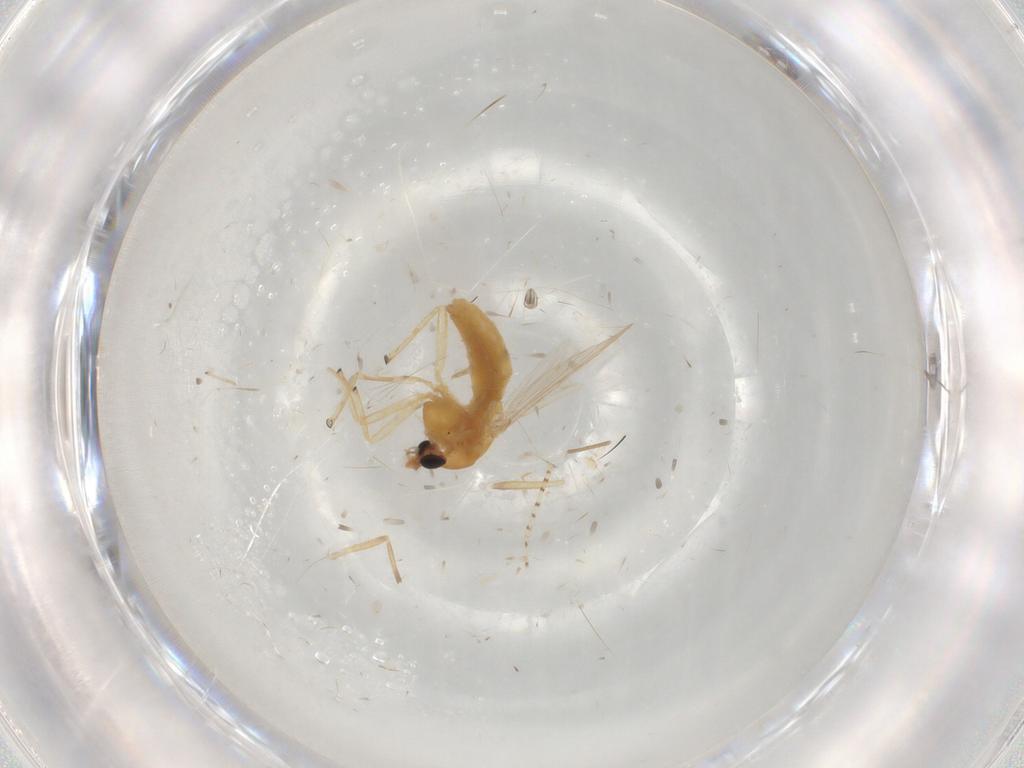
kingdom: Animalia
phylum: Arthropoda
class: Insecta
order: Diptera
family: Chironomidae
